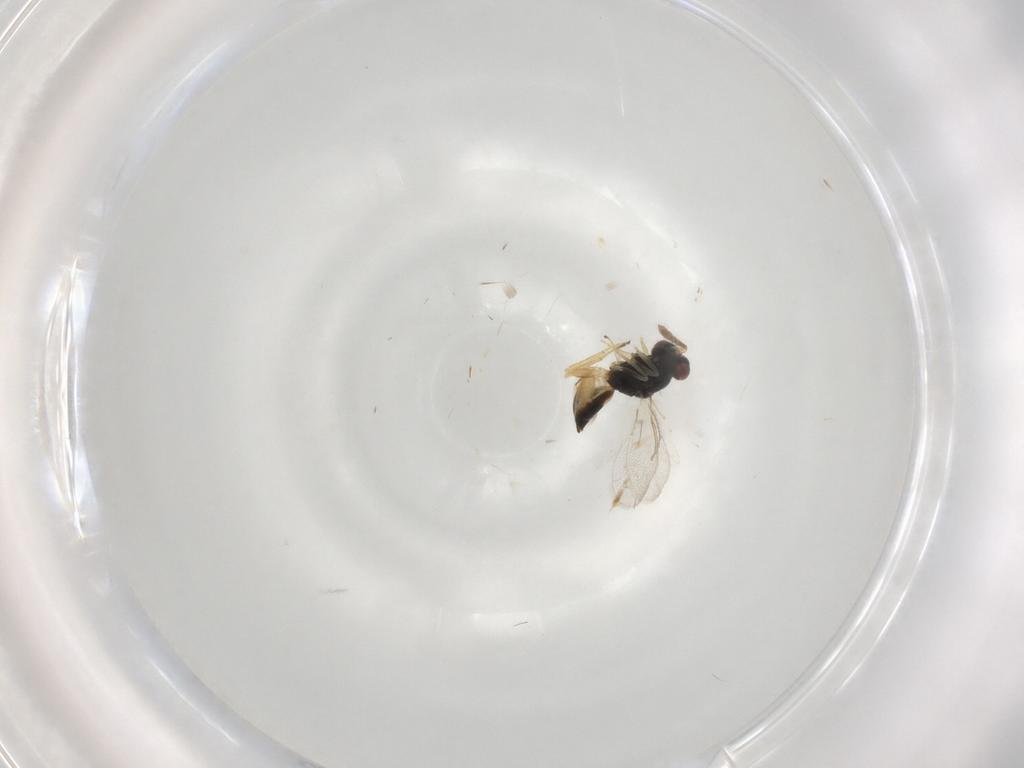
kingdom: Animalia
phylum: Arthropoda
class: Insecta
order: Hymenoptera
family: Eulophidae
